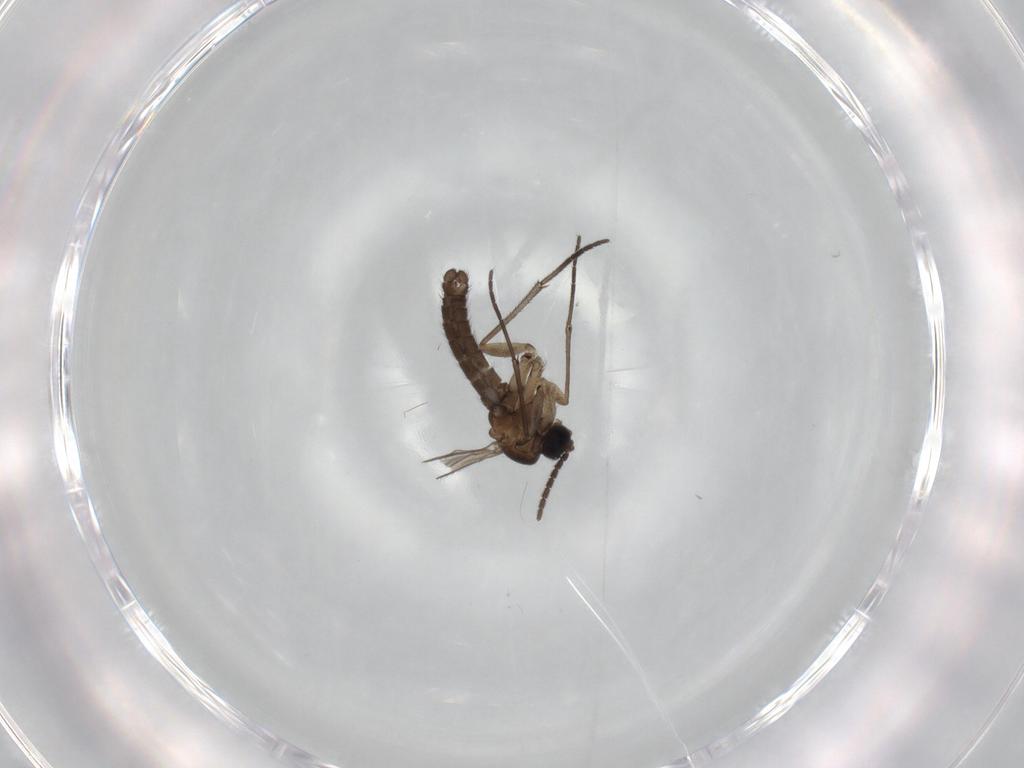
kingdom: Animalia
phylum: Arthropoda
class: Insecta
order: Diptera
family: Sciaridae
